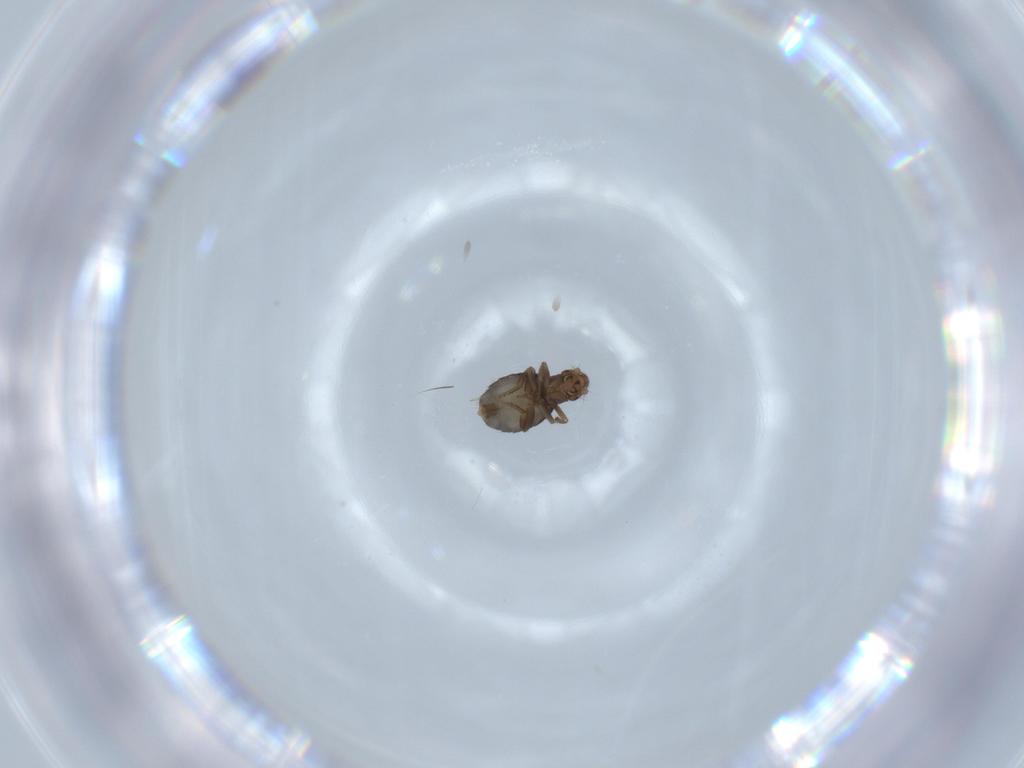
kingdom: Animalia
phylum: Arthropoda
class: Insecta
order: Diptera
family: Phoridae
